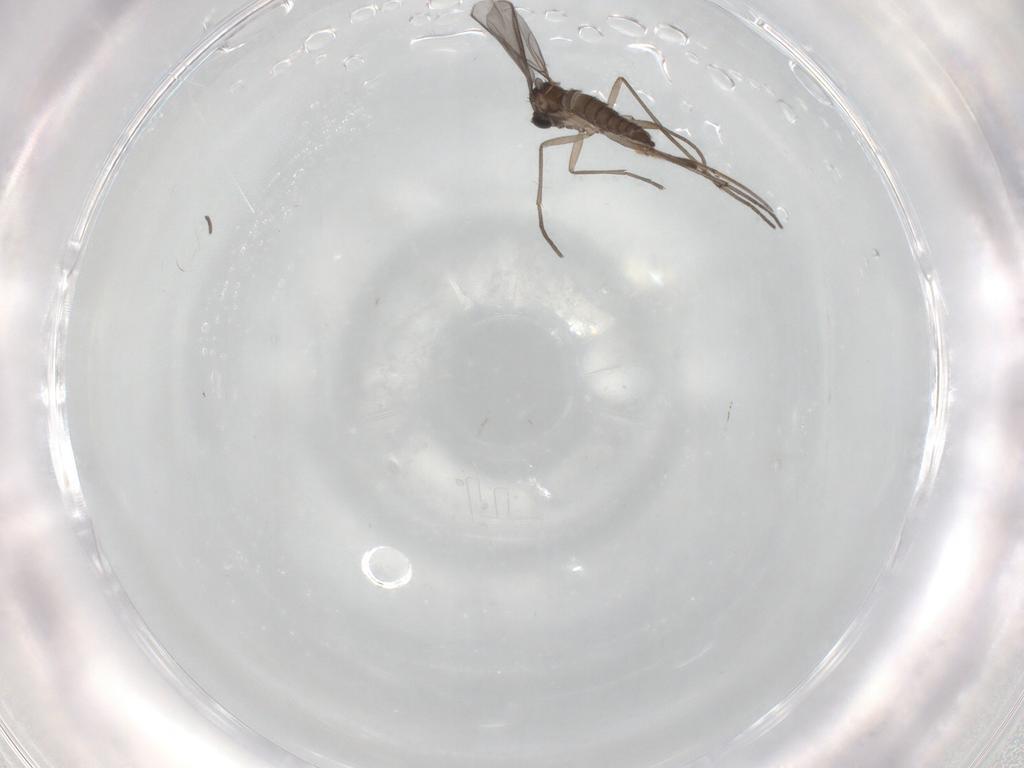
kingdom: Animalia
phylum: Arthropoda
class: Insecta
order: Diptera
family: Sciaridae
